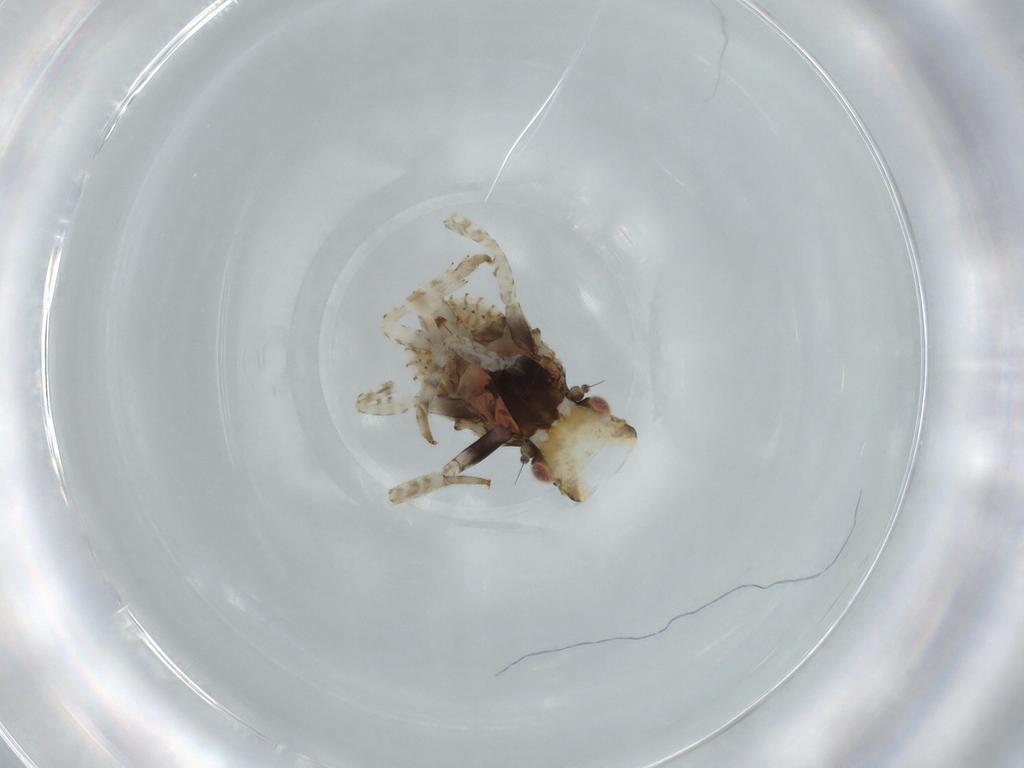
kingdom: Animalia
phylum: Arthropoda
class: Insecta
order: Hemiptera
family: Fulgoridae
